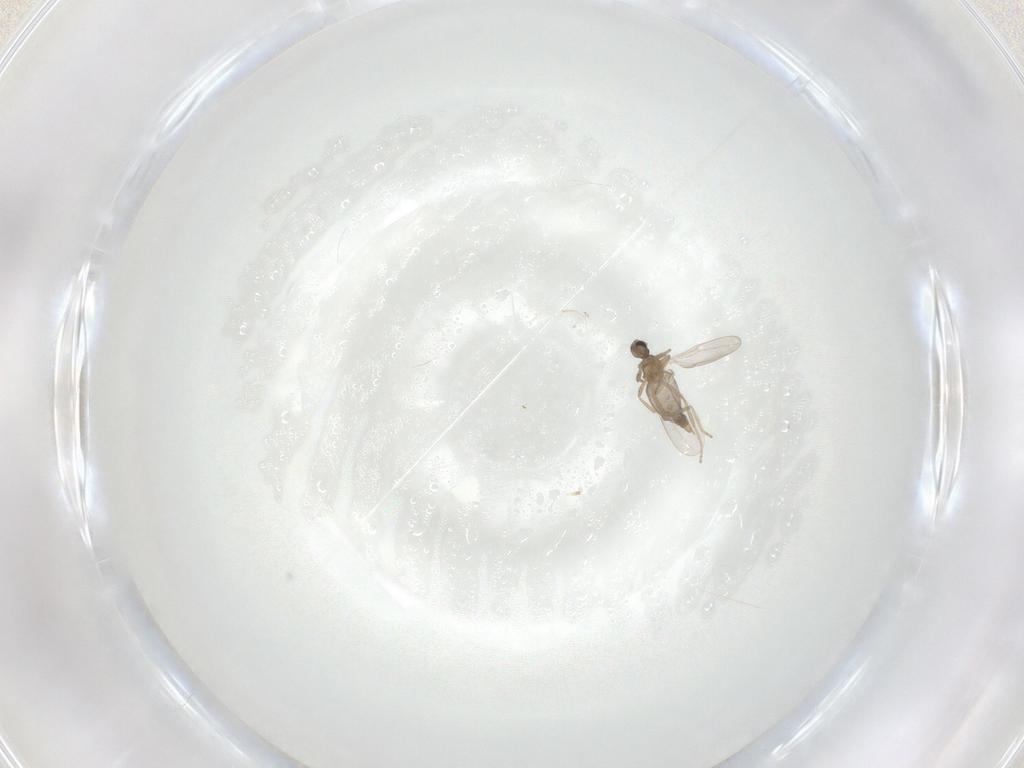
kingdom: Animalia
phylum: Arthropoda
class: Insecta
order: Diptera
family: Cecidomyiidae
